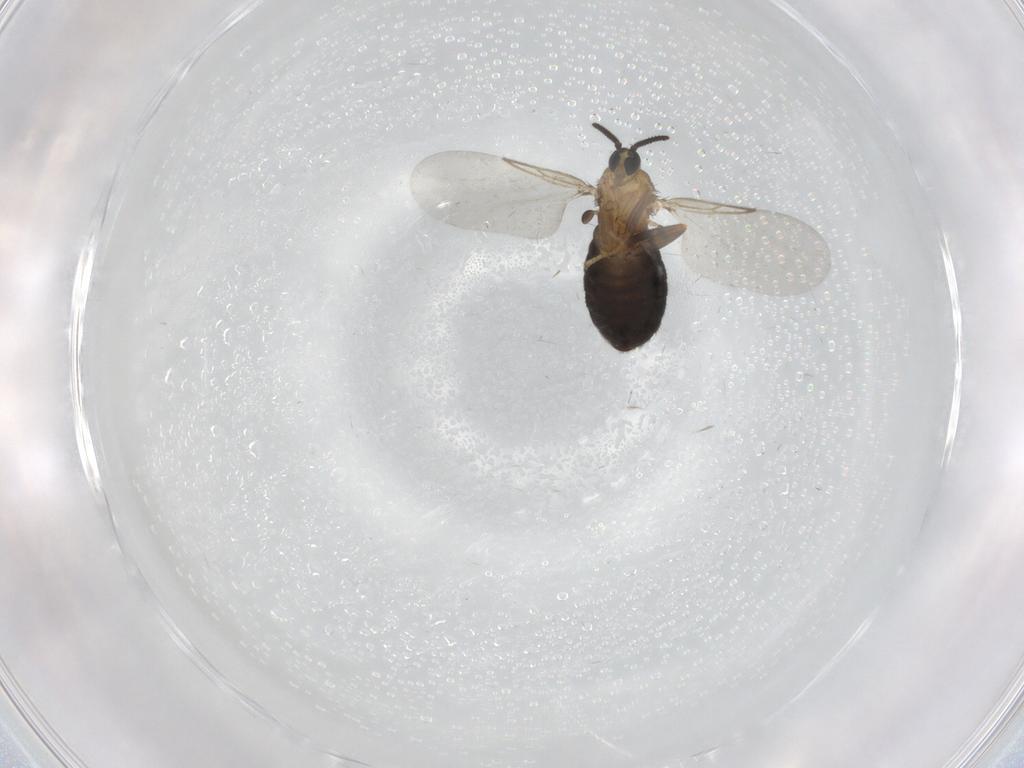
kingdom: Animalia
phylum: Arthropoda
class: Insecta
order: Diptera
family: Scatopsidae
